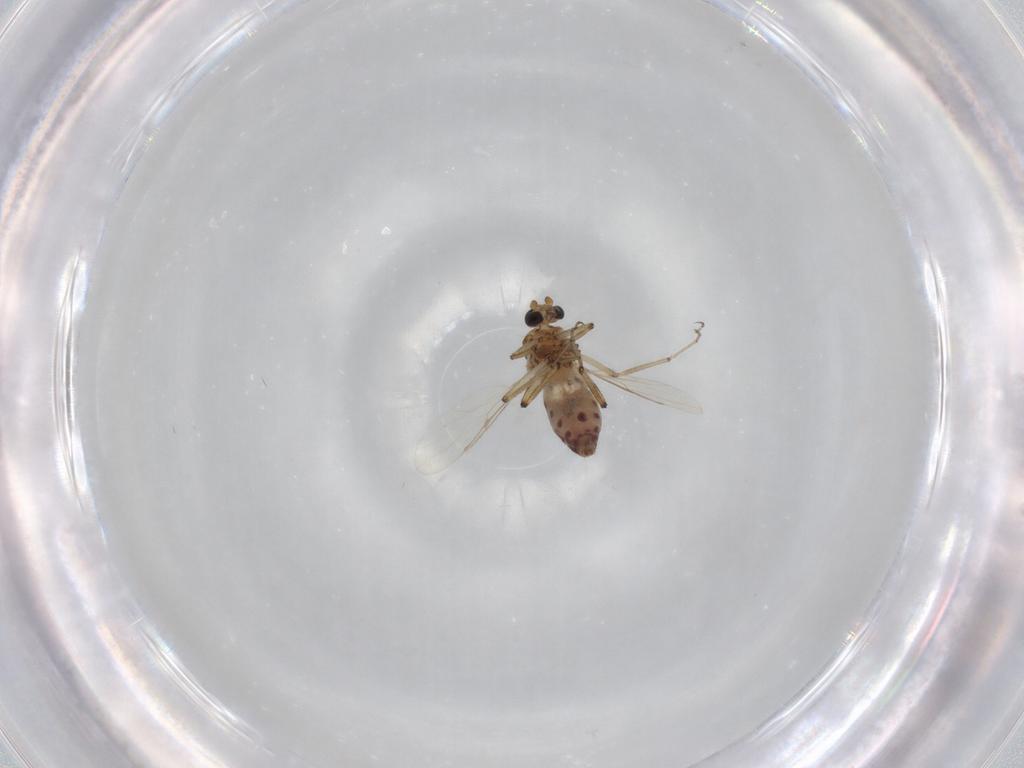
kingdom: Animalia
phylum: Arthropoda
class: Insecta
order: Diptera
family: Ceratopogonidae
